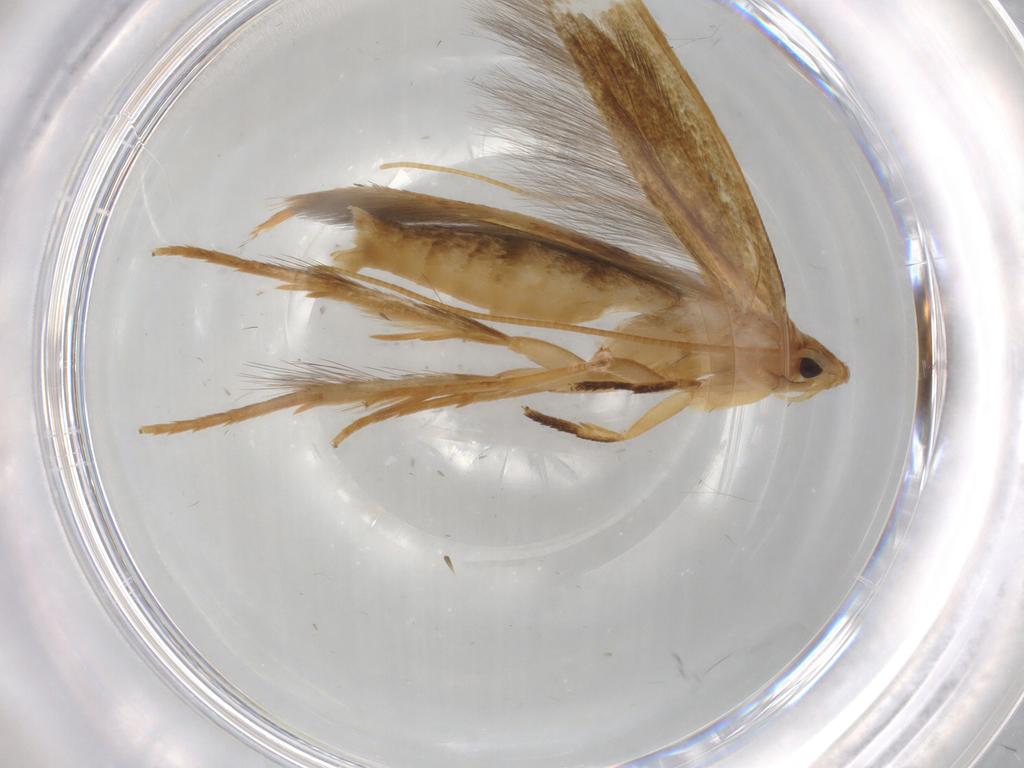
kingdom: Animalia
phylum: Arthropoda
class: Insecta
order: Lepidoptera
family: Tineidae
